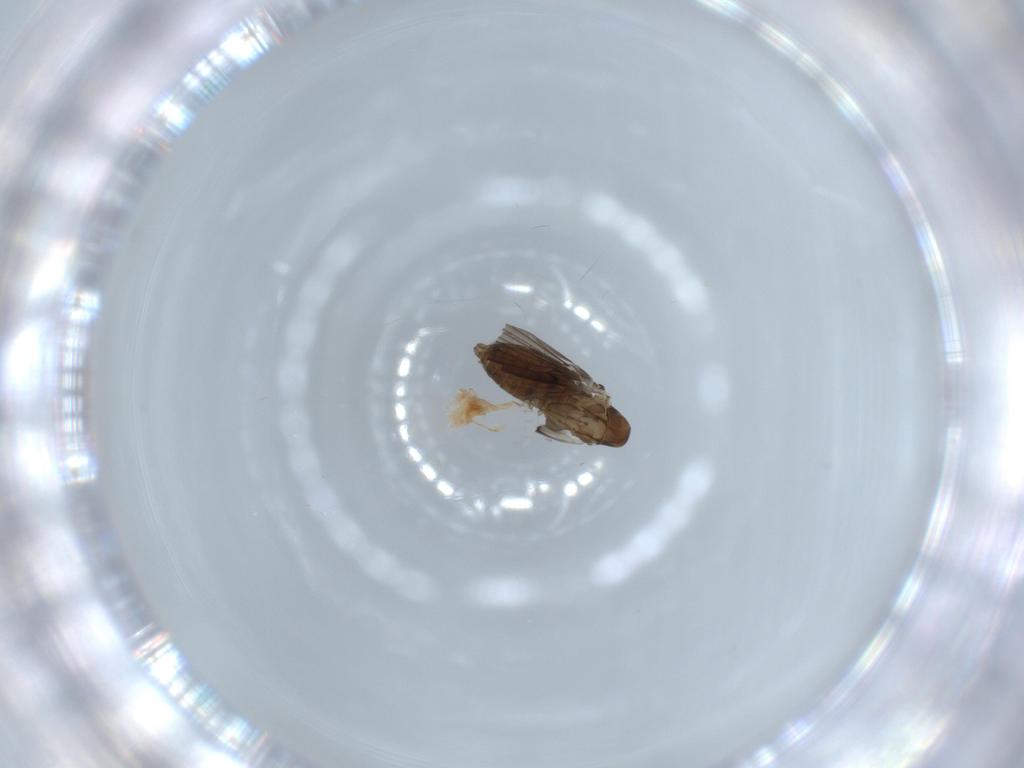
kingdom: Animalia
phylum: Arthropoda
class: Insecta
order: Diptera
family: Psychodidae
